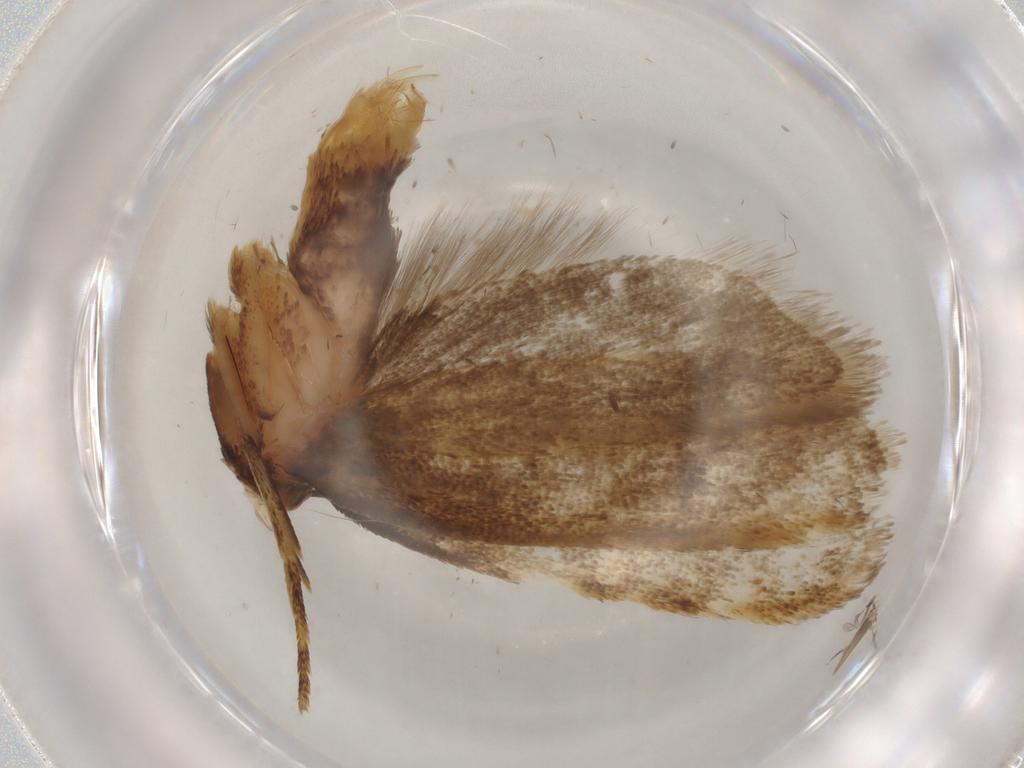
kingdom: Animalia
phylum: Arthropoda
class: Insecta
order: Lepidoptera
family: Lecithoceridae
